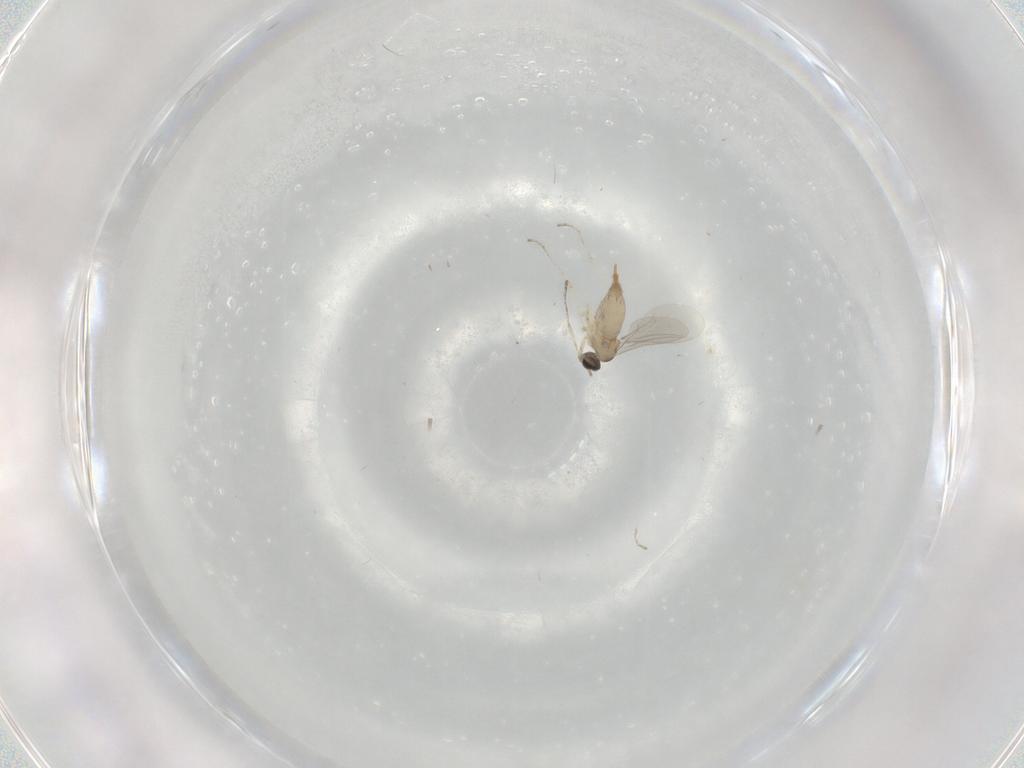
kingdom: Animalia
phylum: Arthropoda
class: Insecta
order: Diptera
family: Cecidomyiidae
